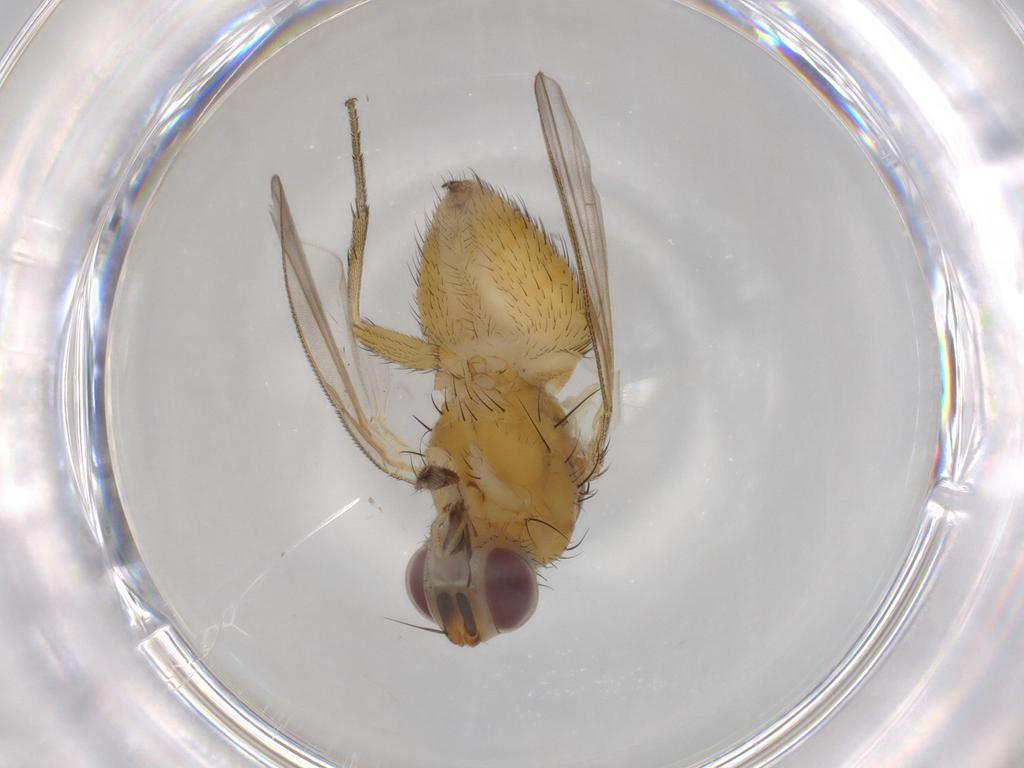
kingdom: Animalia
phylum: Arthropoda
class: Insecta
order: Diptera
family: Muscidae
